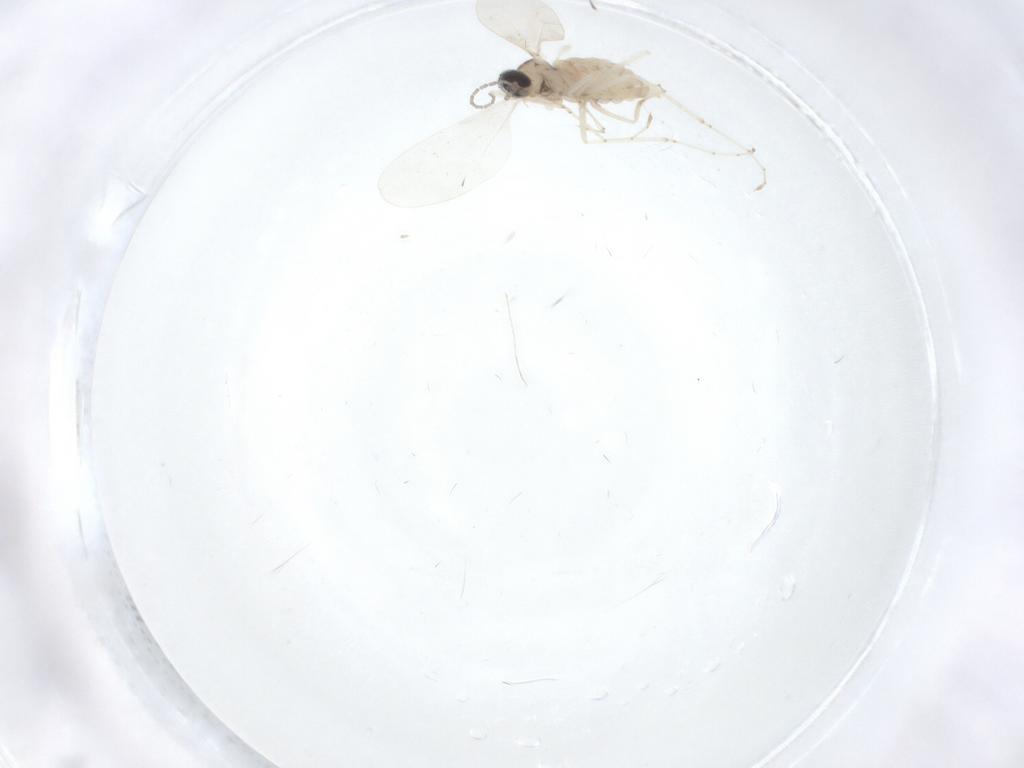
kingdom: Animalia
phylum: Arthropoda
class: Insecta
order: Diptera
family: Cecidomyiidae
